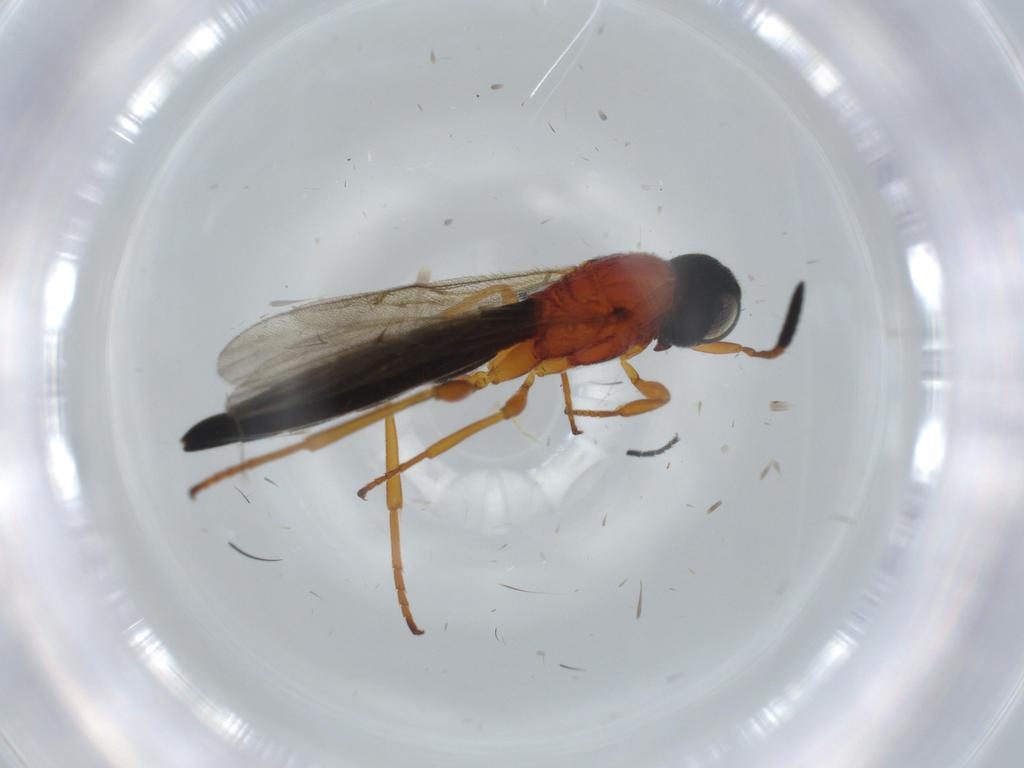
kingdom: Animalia
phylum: Arthropoda
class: Insecta
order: Hymenoptera
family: Scelionidae
